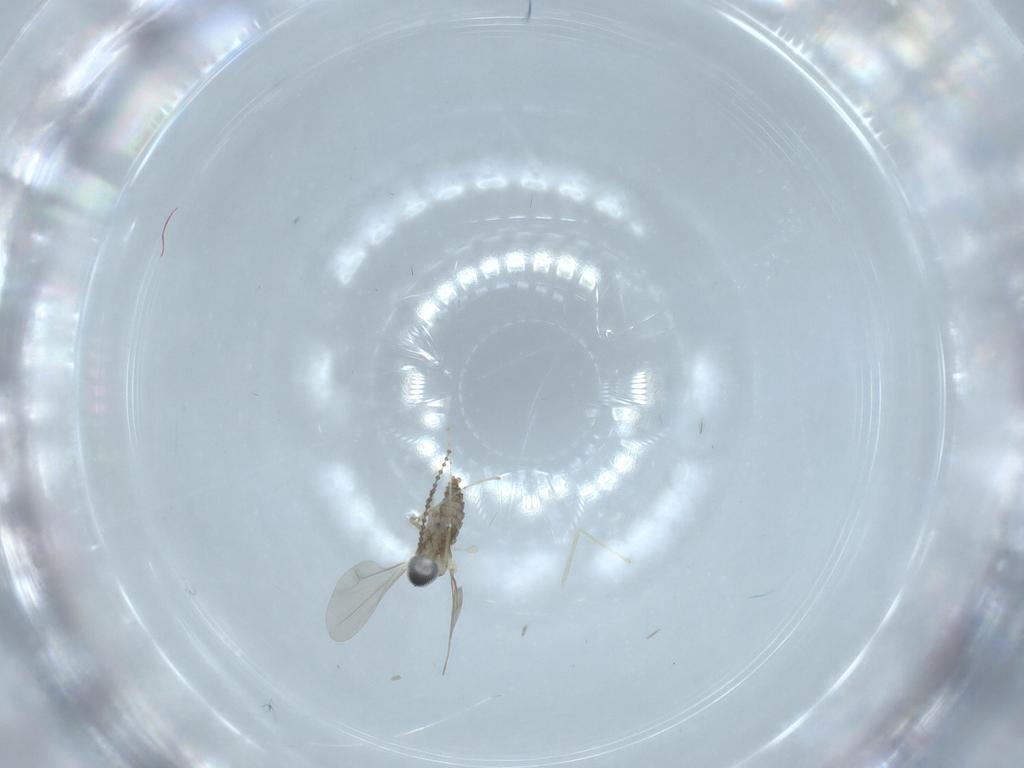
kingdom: Animalia
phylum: Arthropoda
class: Insecta
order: Diptera
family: Cecidomyiidae
